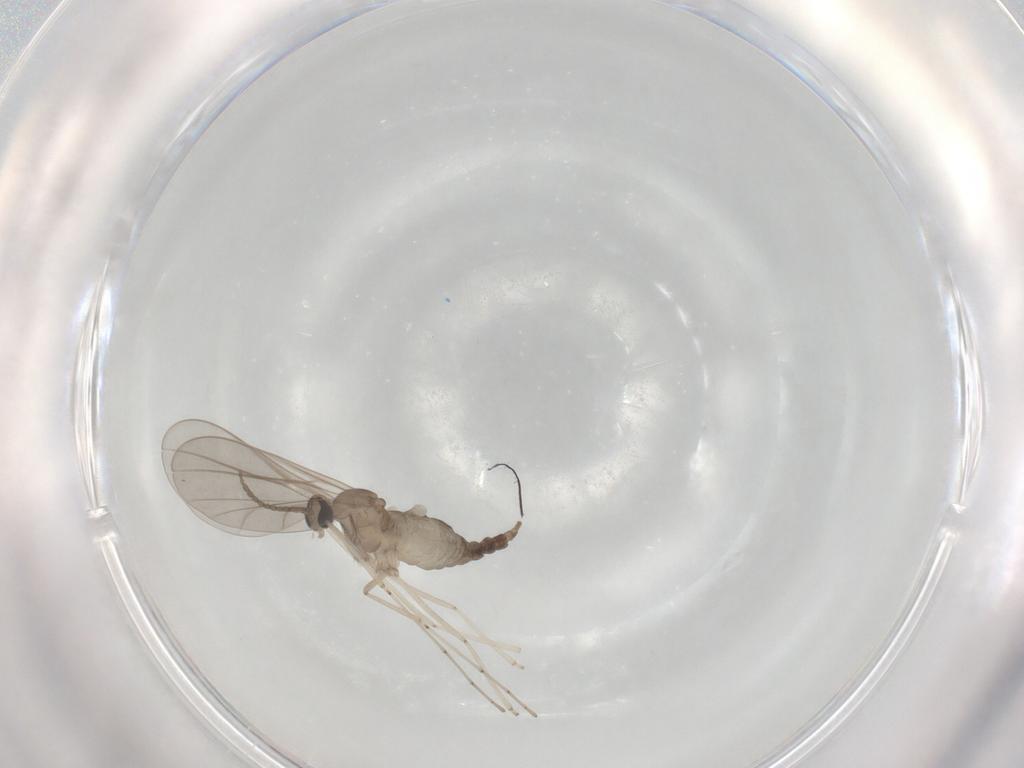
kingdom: Animalia
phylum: Arthropoda
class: Insecta
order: Diptera
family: Cecidomyiidae
